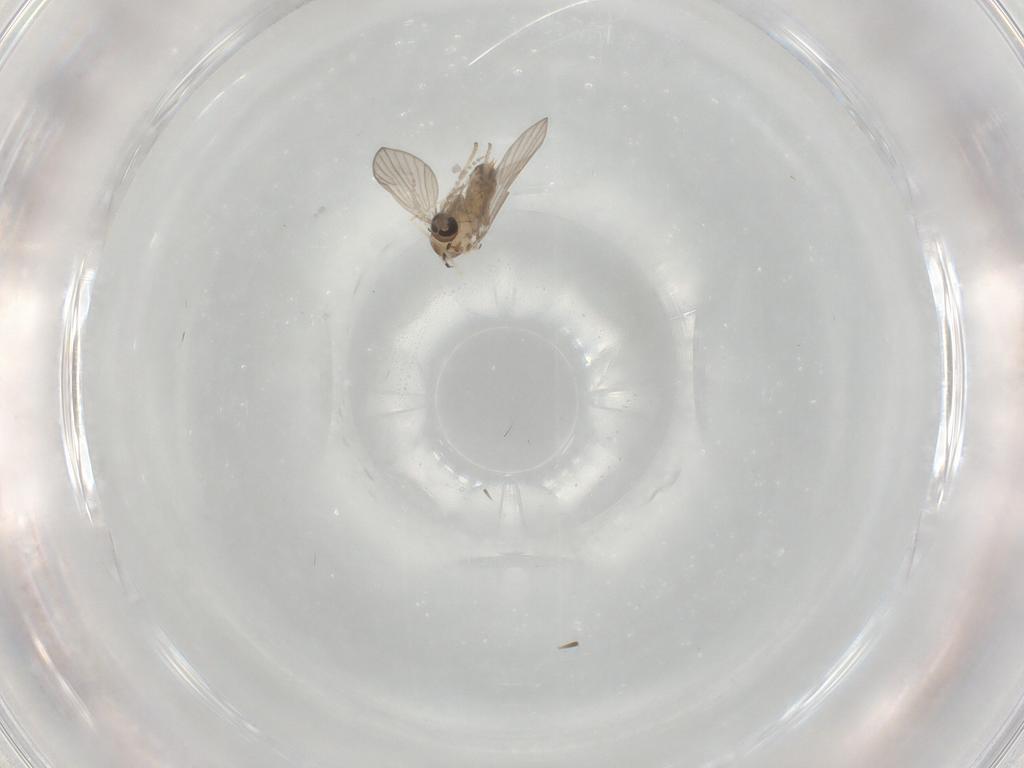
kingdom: Animalia
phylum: Arthropoda
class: Insecta
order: Diptera
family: Psychodidae
